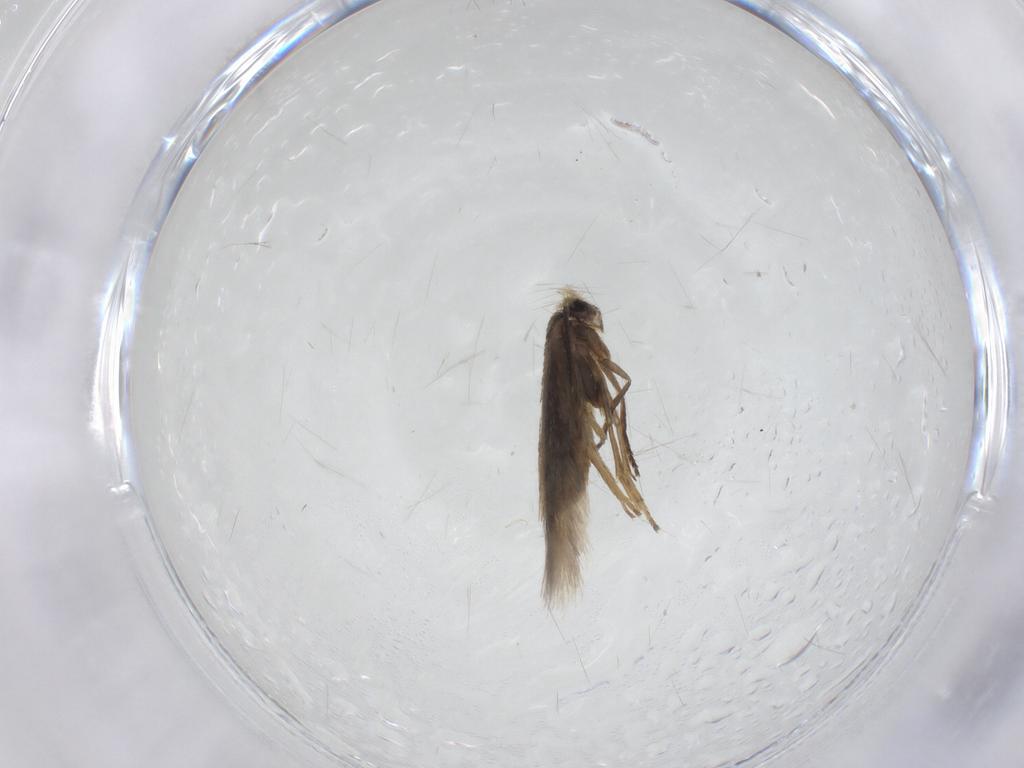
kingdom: Animalia
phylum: Arthropoda
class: Insecta
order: Lepidoptera
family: Nepticulidae
